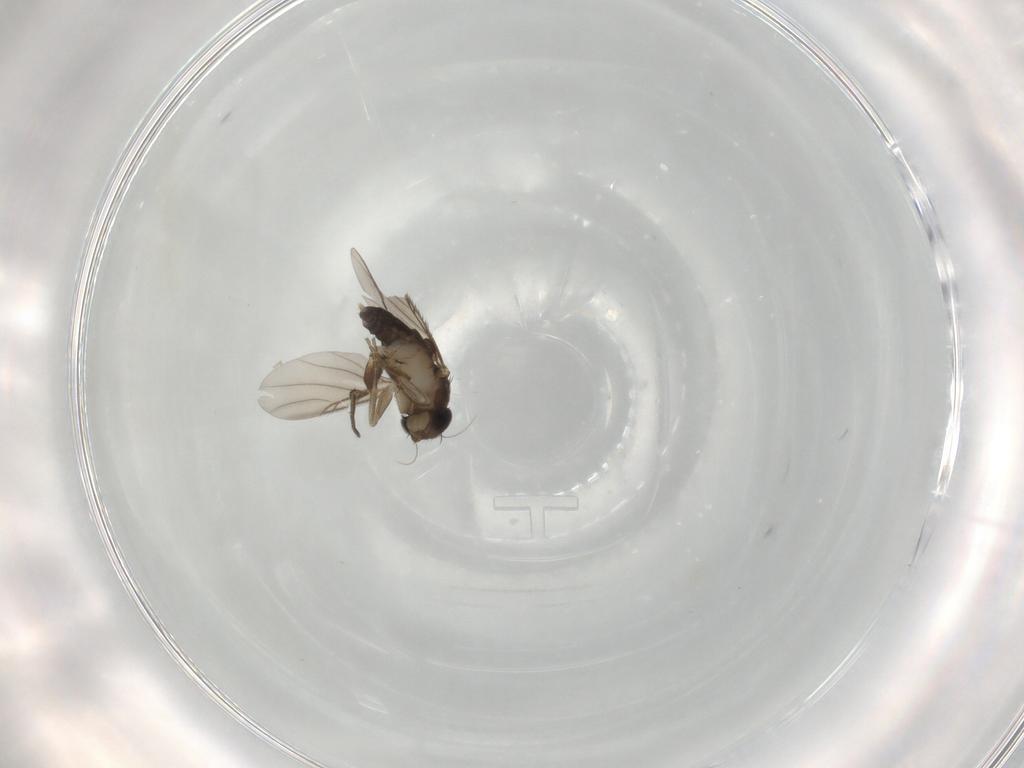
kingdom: Animalia
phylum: Arthropoda
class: Insecta
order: Diptera
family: Phoridae
